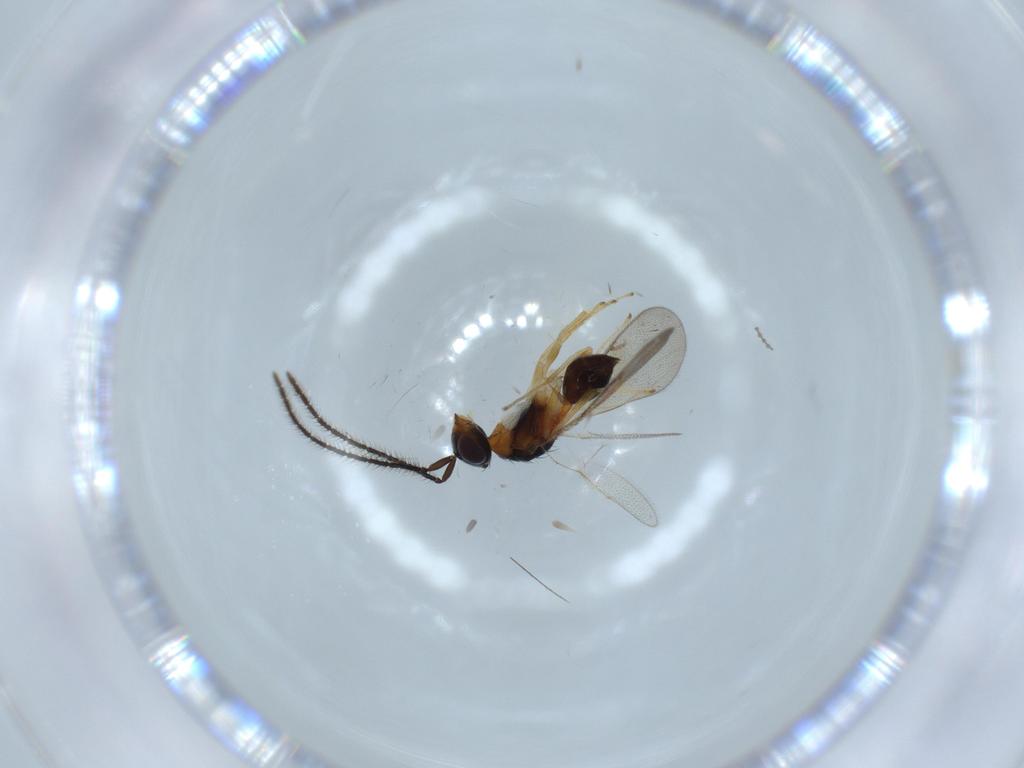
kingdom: Animalia
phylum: Arthropoda
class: Insecta
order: Hymenoptera
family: Diparidae
